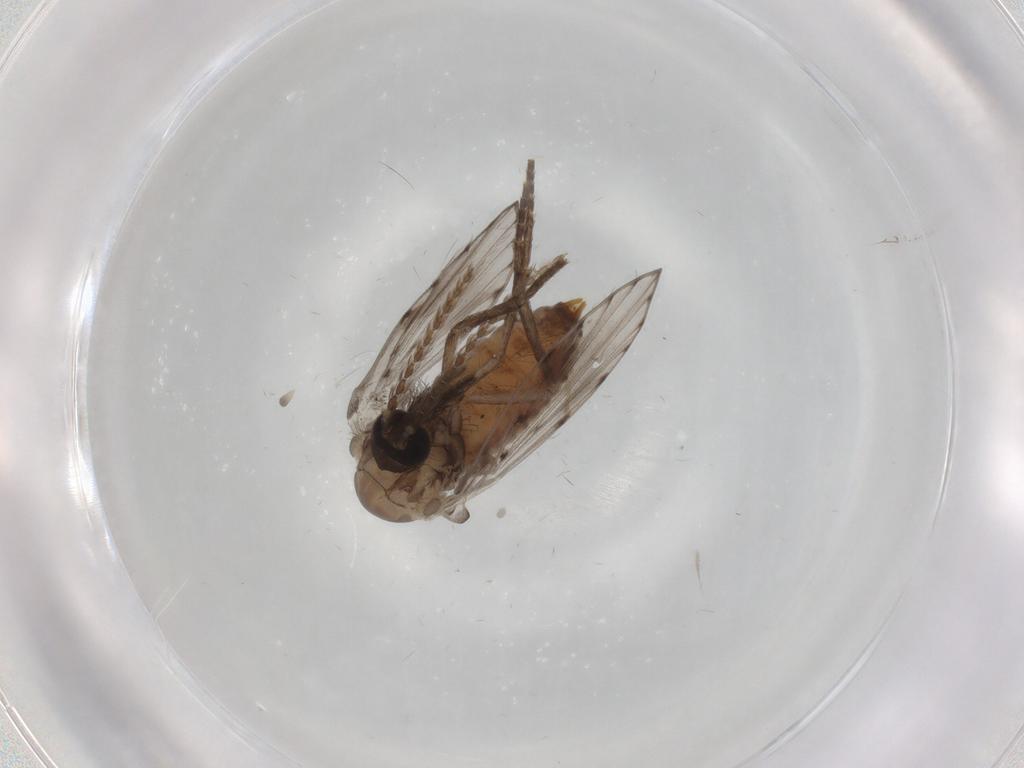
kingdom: Animalia
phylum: Arthropoda
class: Insecta
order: Diptera
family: Psychodidae
